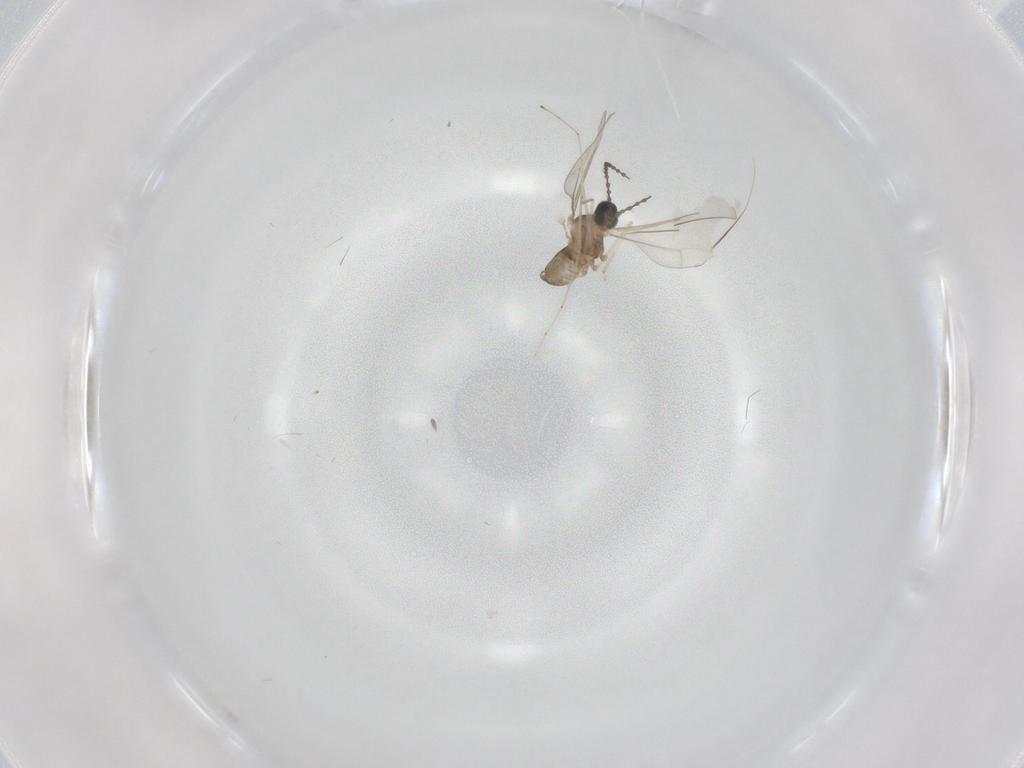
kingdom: Animalia
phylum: Arthropoda
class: Insecta
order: Diptera
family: Cecidomyiidae
